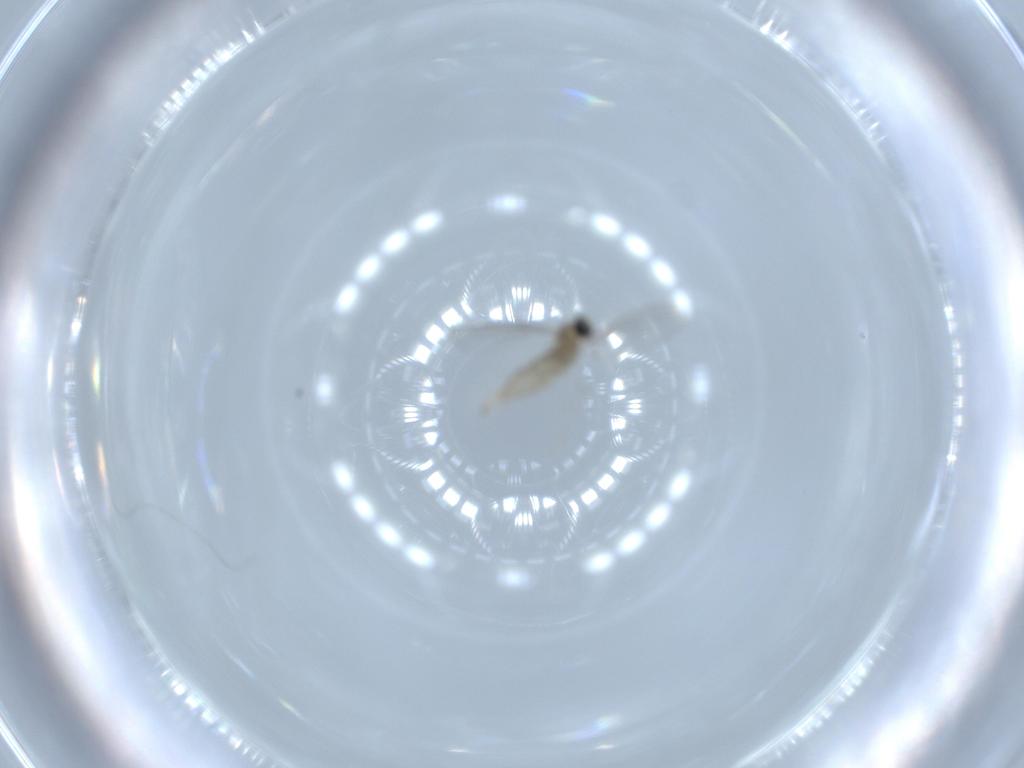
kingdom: Animalia
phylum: Arthropoda
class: Insecta
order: Diptera
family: Cecidomyiidae
